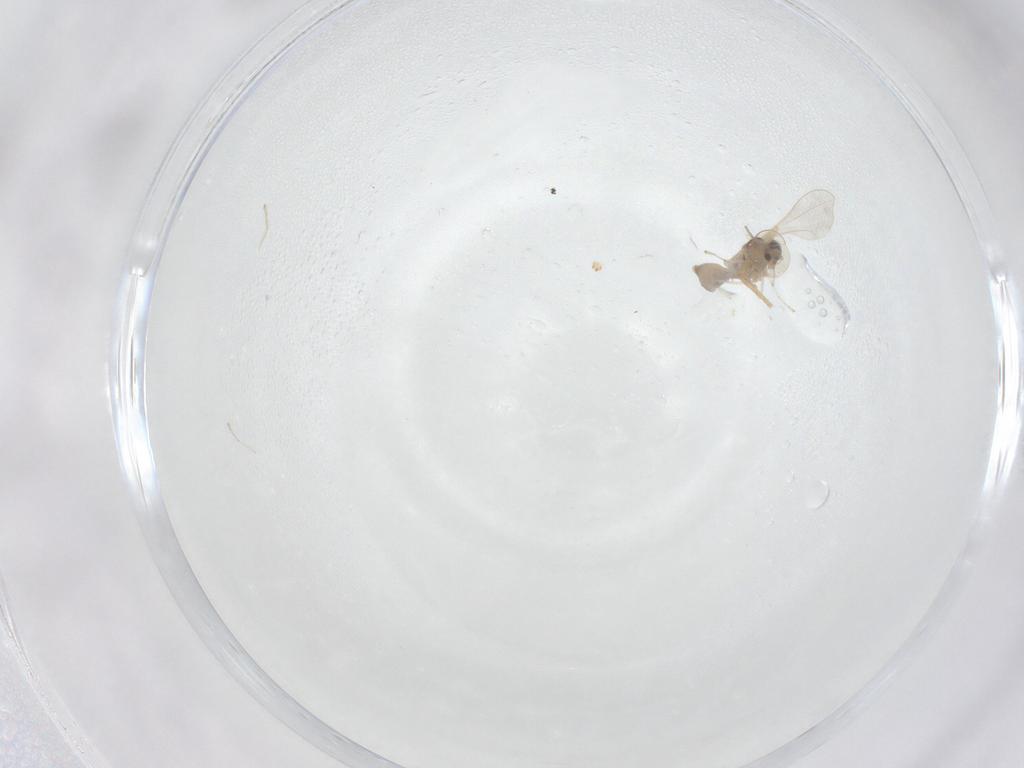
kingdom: Animalia
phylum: Arthropoda
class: Insecta
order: Diptera
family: Cecidomyiidae
